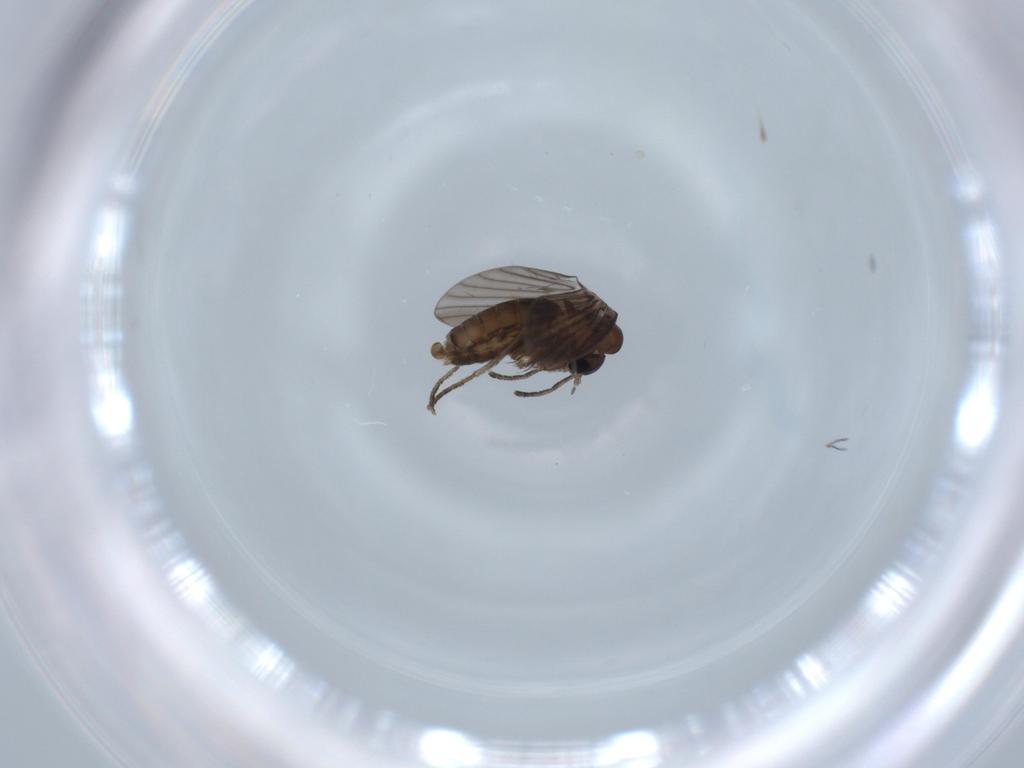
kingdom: Animalia
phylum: Arthropoda
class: Insecta
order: Diptera
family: Psychodidae
